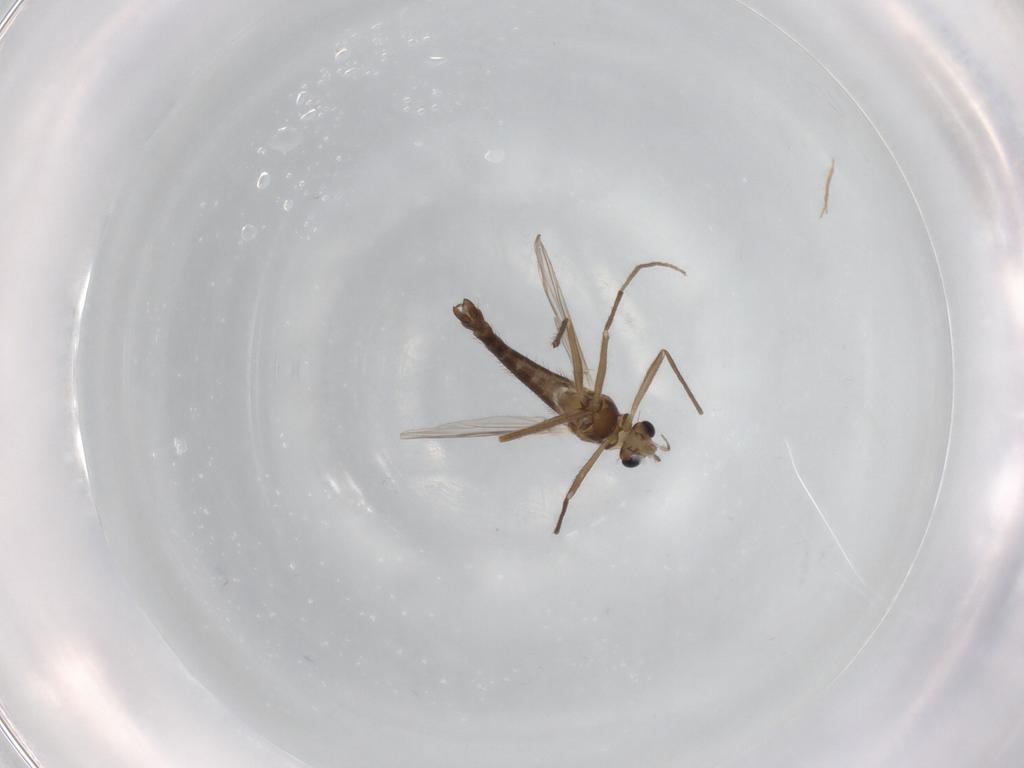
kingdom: Animalia
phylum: Arthropoda
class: Insecta
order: Diptera
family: Chironomidae
